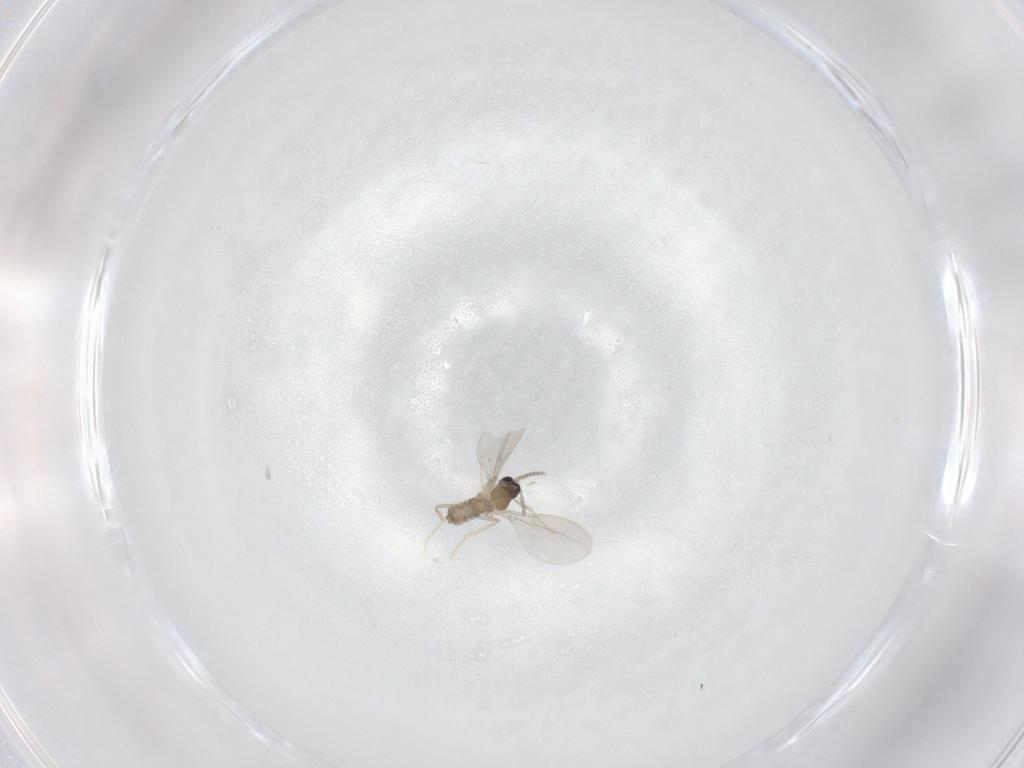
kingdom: Animalia
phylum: Arthropoda
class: Insecta
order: Diptera
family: Cecidomyiidae
